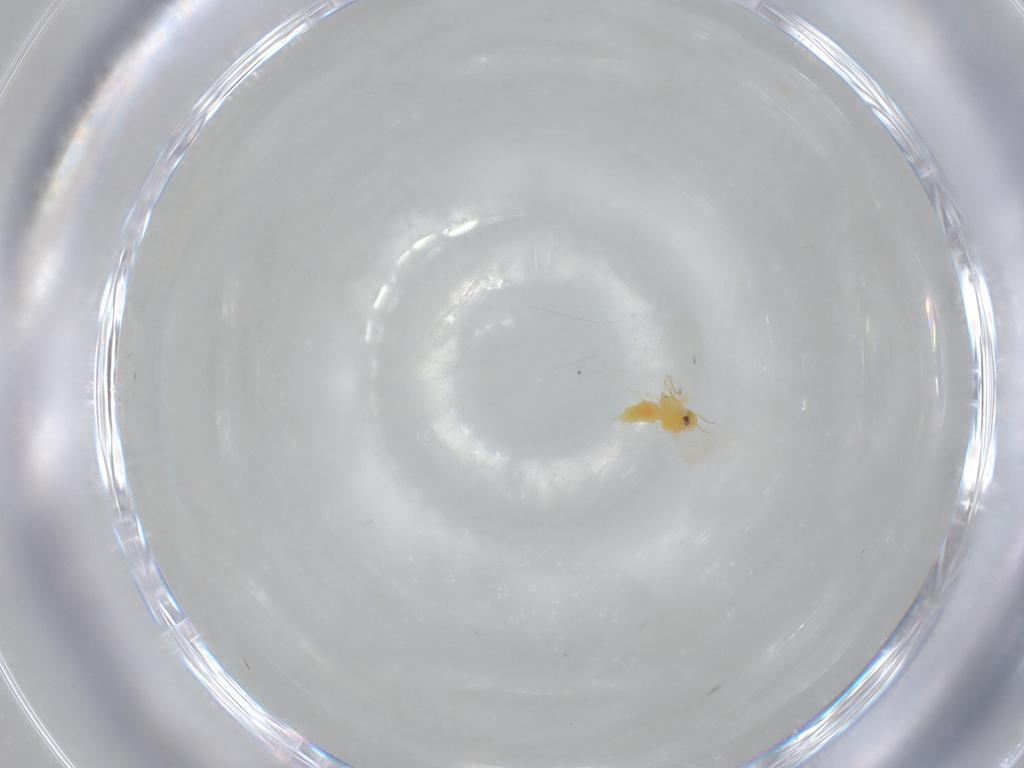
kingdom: Animalia
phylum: Arthropoda
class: Insecta
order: Hemiptera
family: Aleyrodidae
